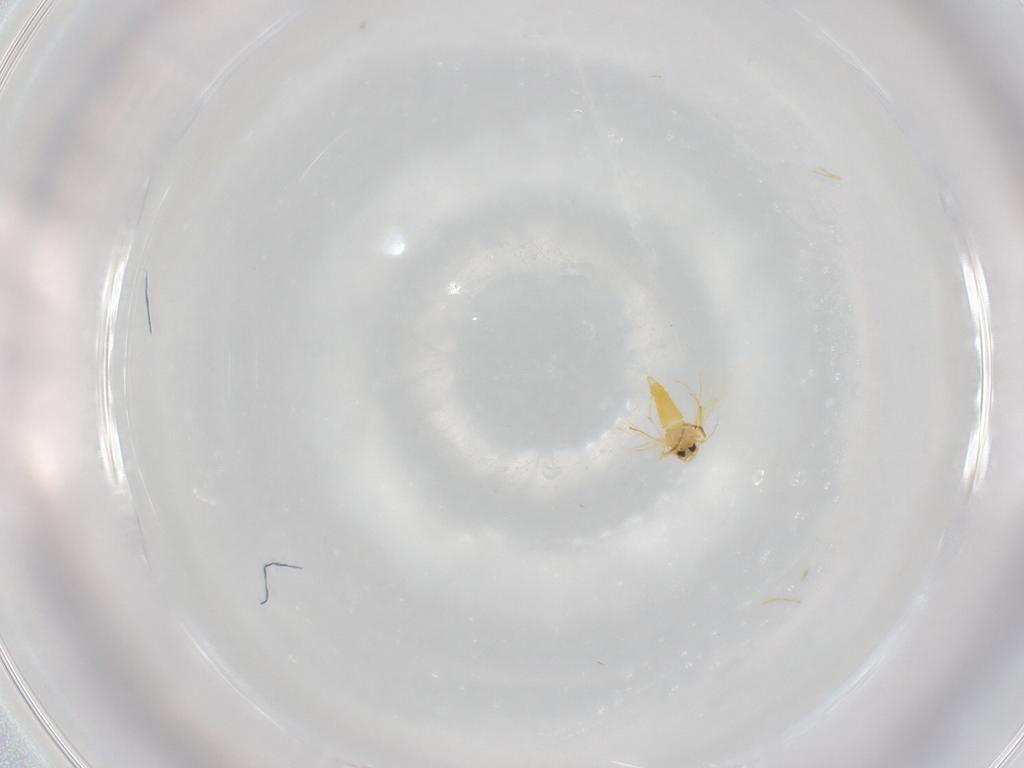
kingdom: Animalia
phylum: Arthropoda
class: Insecta
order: Hemiptera
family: Aleyrodidae
